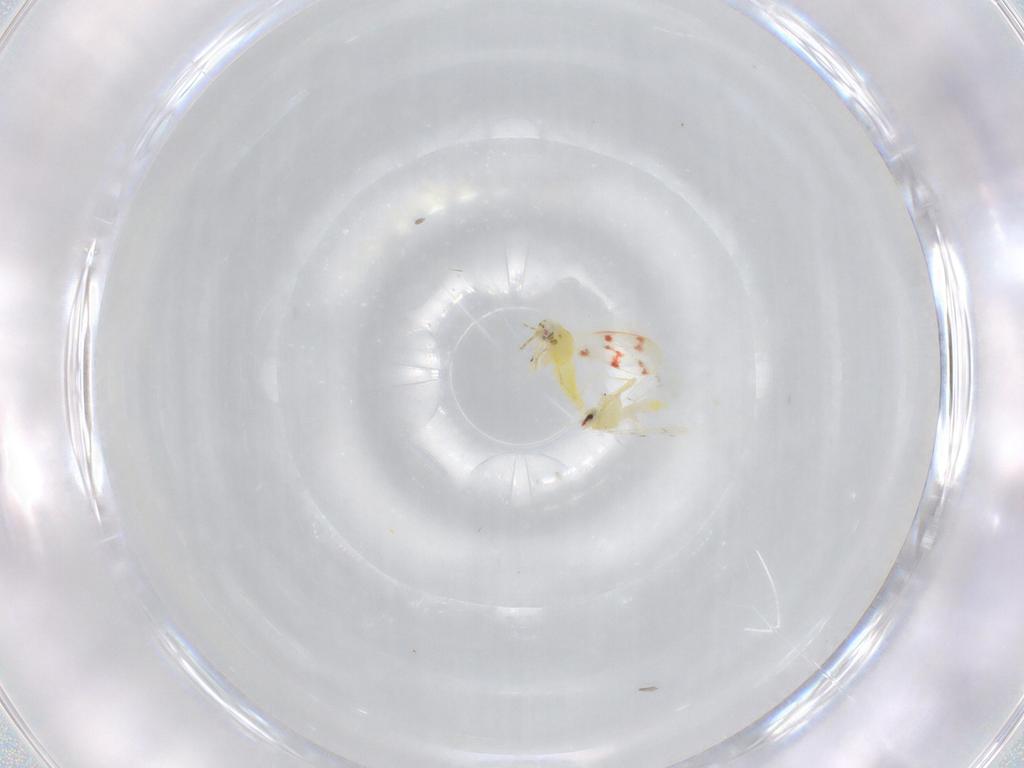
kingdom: Animalia
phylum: Arthropoda
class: Insecta
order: Hemiptera
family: Aleyrodidae
